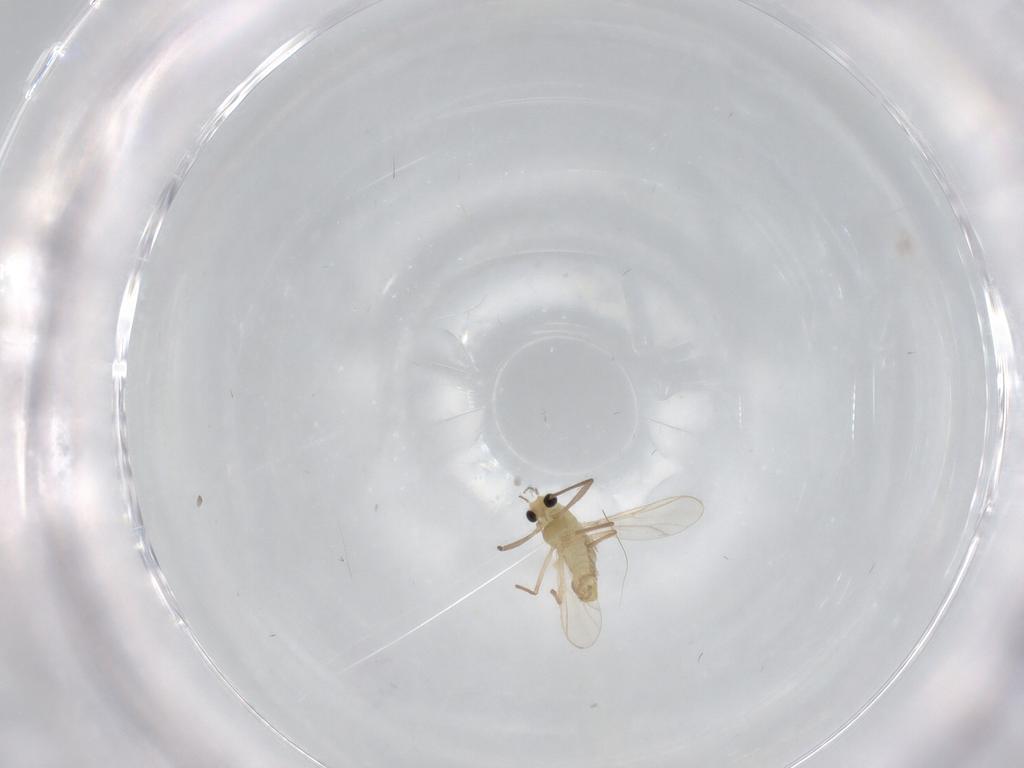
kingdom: Animalia
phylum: Arthropoda
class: Insecta
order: Diptera
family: Chironomidae
